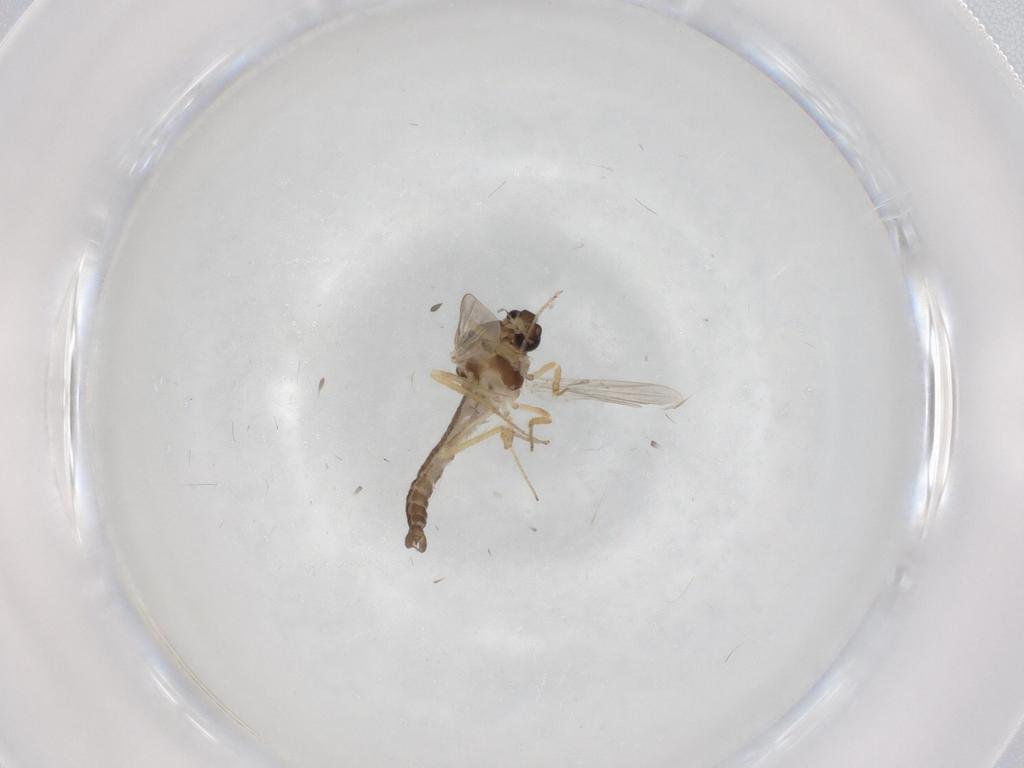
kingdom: Animalia
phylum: Arthropoda
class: Insecta
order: Diptera
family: Ceratopogonidae
